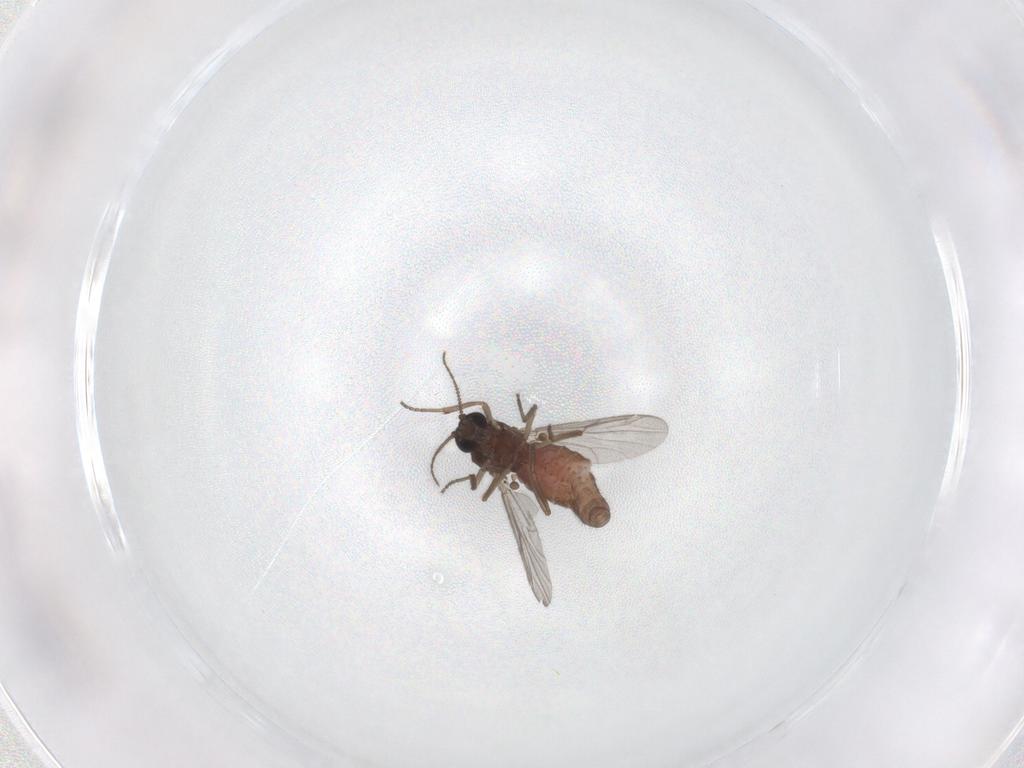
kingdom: Animalia
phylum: Arthropoda
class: Insecta
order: Diptera
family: Ceratopogonidae
